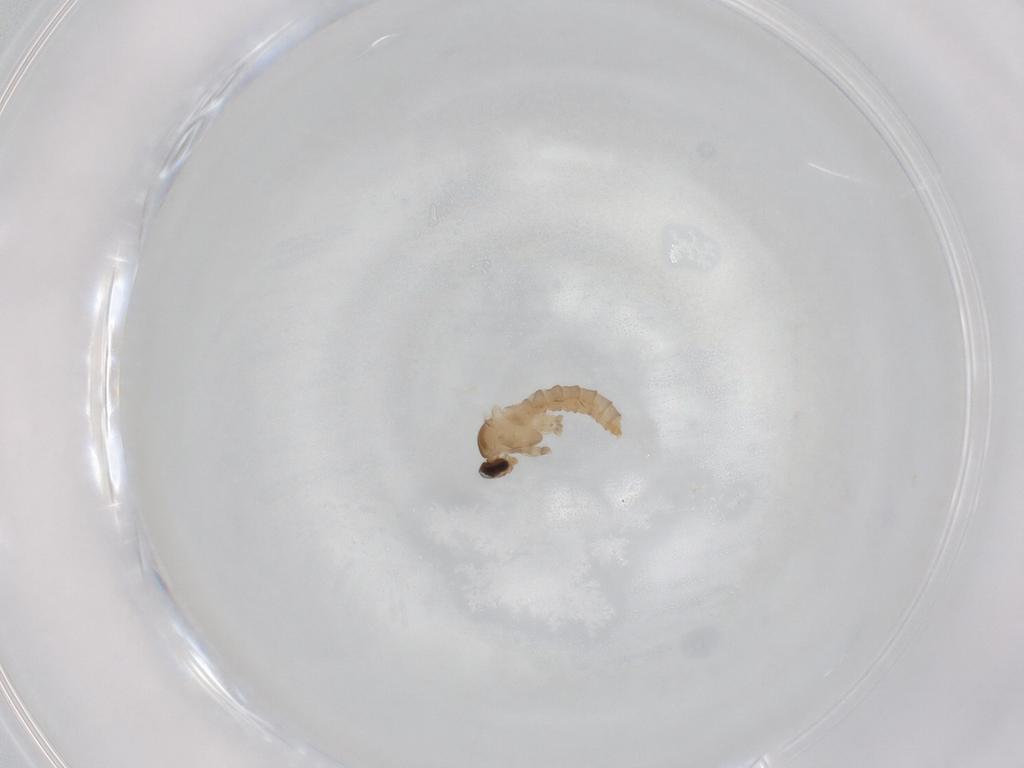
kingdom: Animalia
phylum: Arthropoda
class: Insecta
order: Diptera
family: Cecidomyiidae
